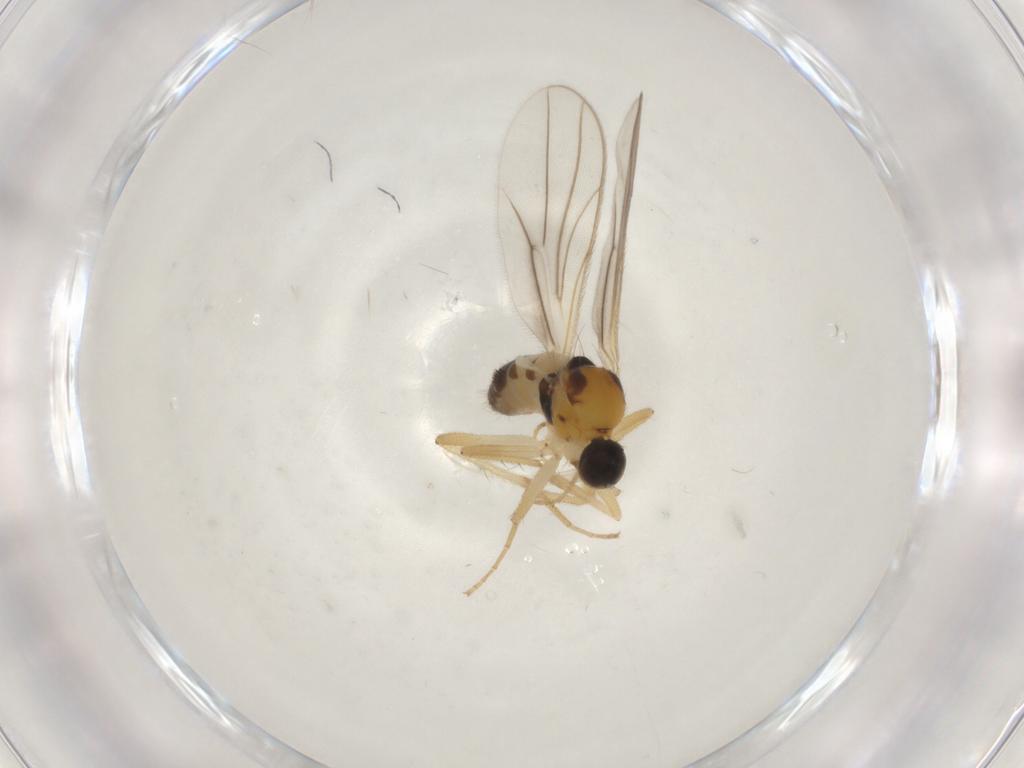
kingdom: Animalia
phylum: Arthropoda
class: Insecta
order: Diptera
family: Hybotidae
